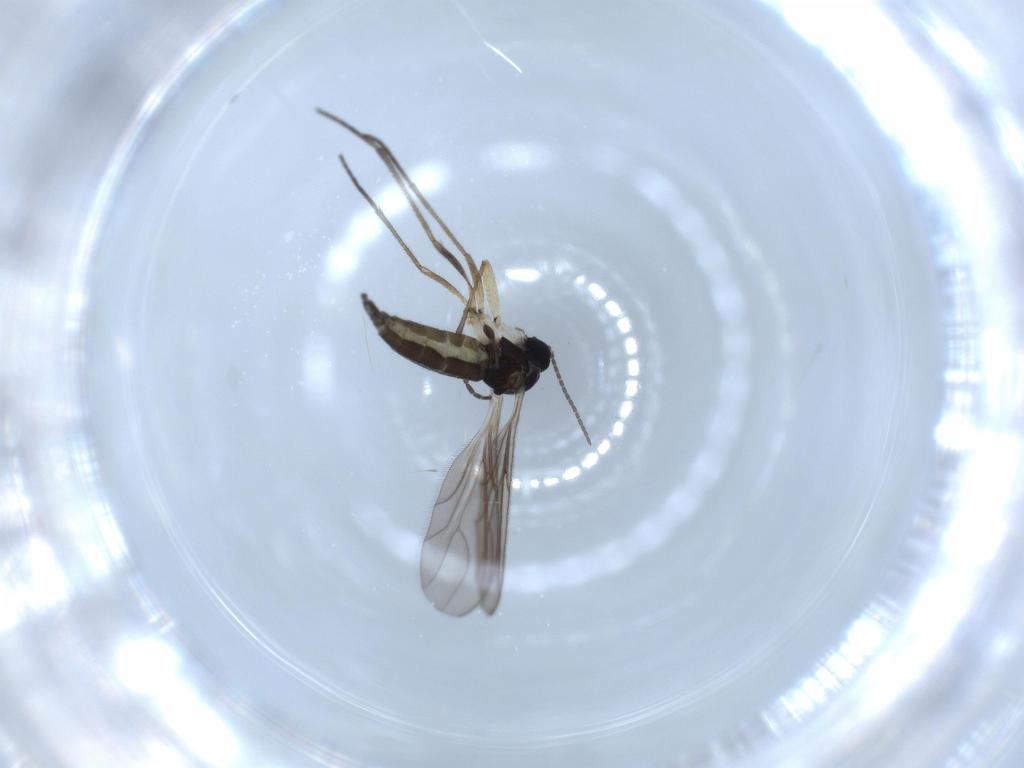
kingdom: Animalia
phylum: Arthropoda
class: Insecta
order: Diptera
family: Sciaridae
